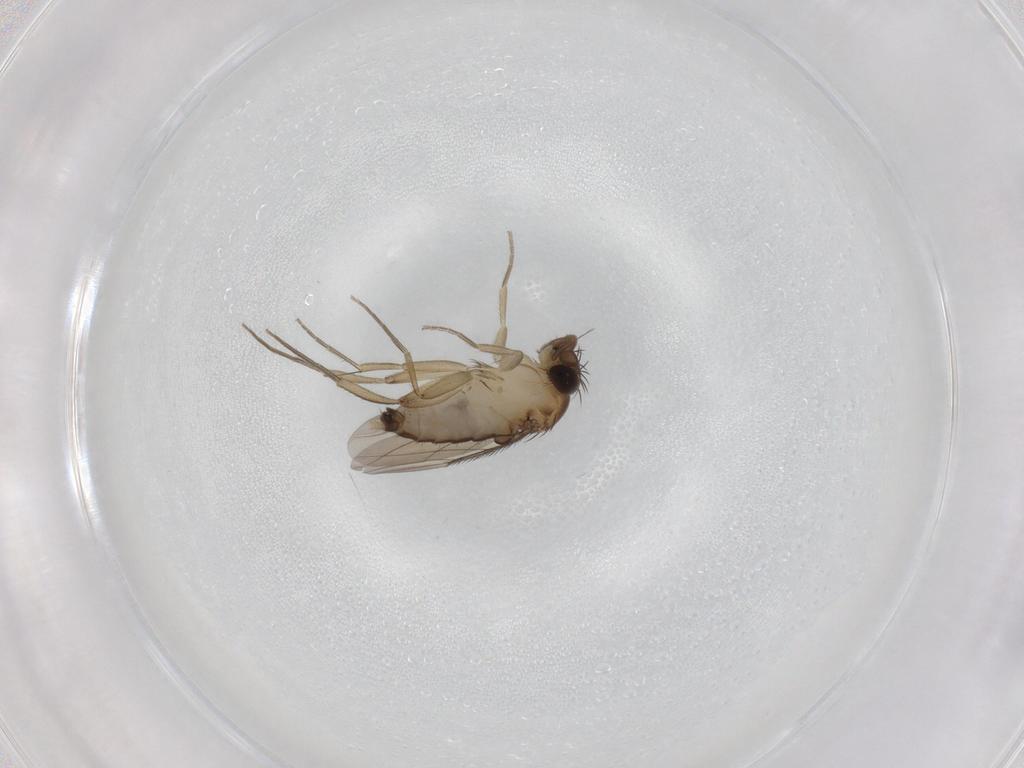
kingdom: Animalia
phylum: Arthropoda
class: Insecta
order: Diptera
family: Phoridae
